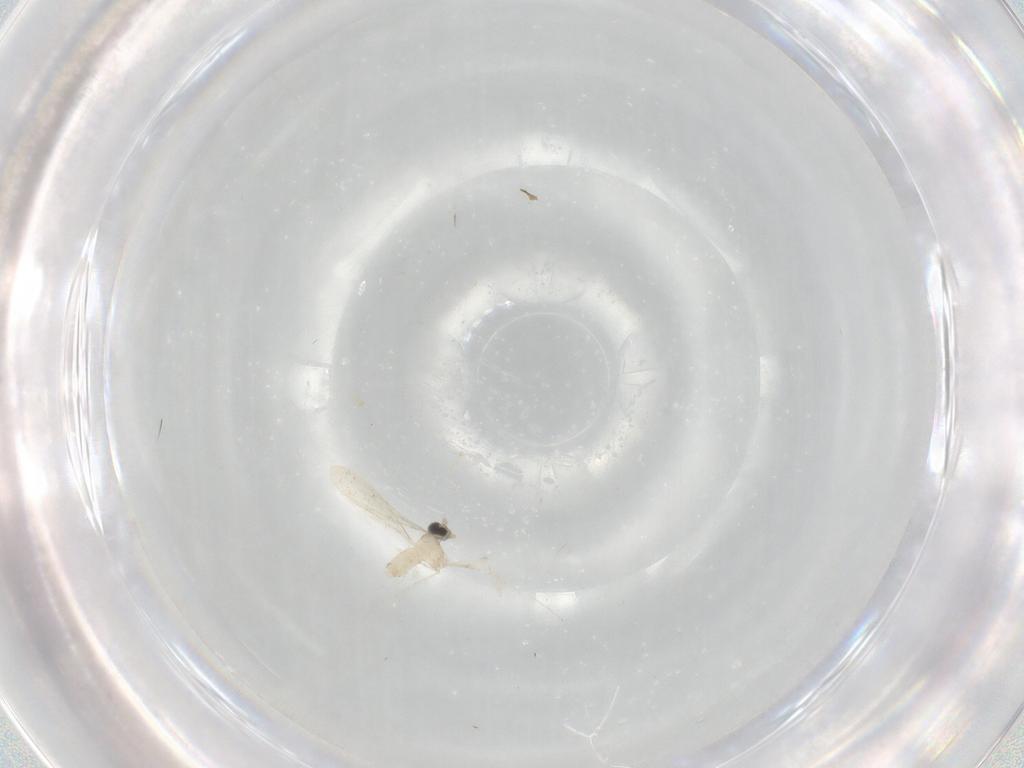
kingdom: Animalia
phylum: Arthropoda
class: Insecta
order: Diptera
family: Cecidomyiidae
